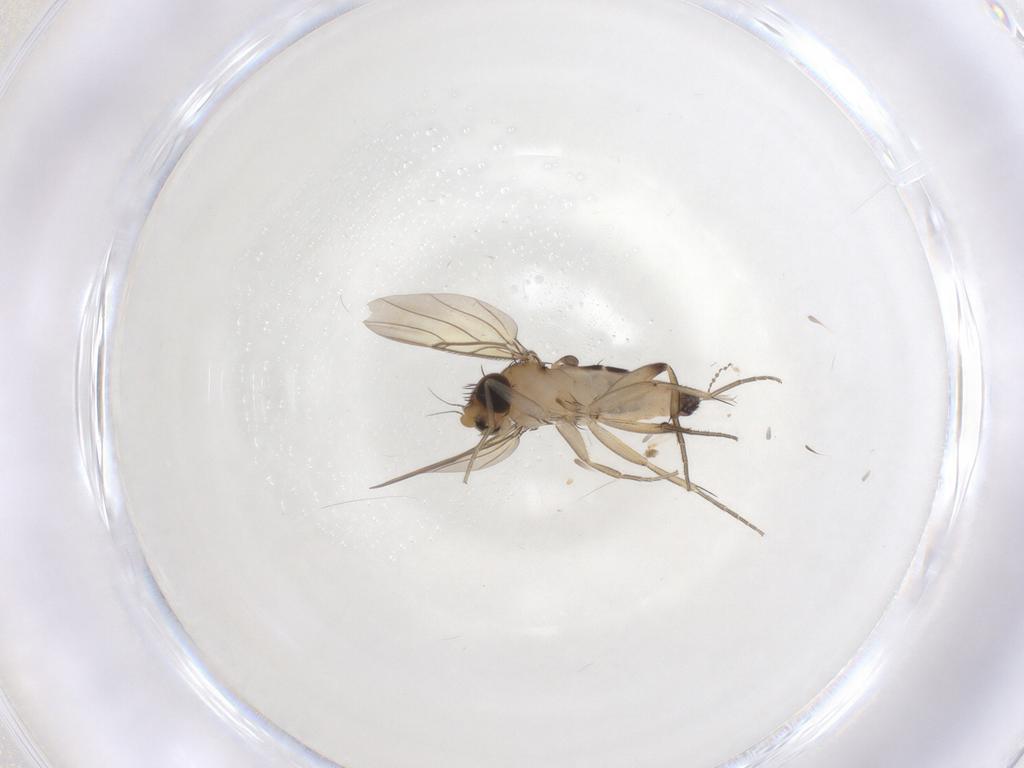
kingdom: Animalia
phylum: Arthropoda
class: Insecta
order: Diptera
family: Phoridae
